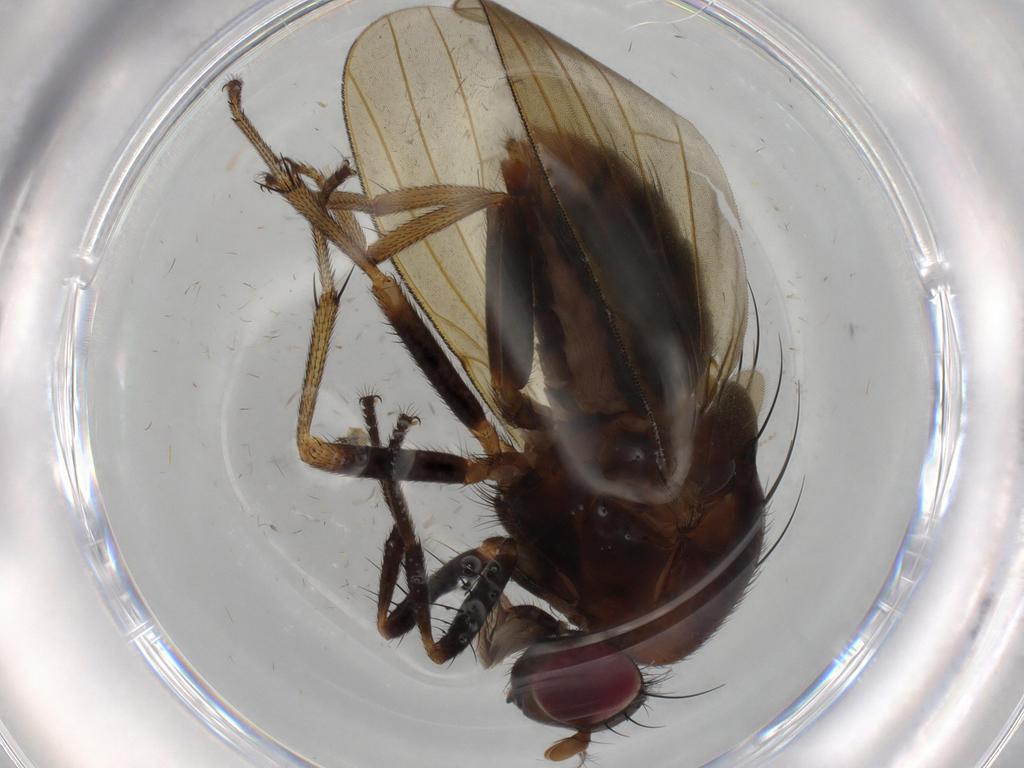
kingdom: Animalia
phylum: Arthropoda
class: Insecta
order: Diptera
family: Cecidomyiidae
